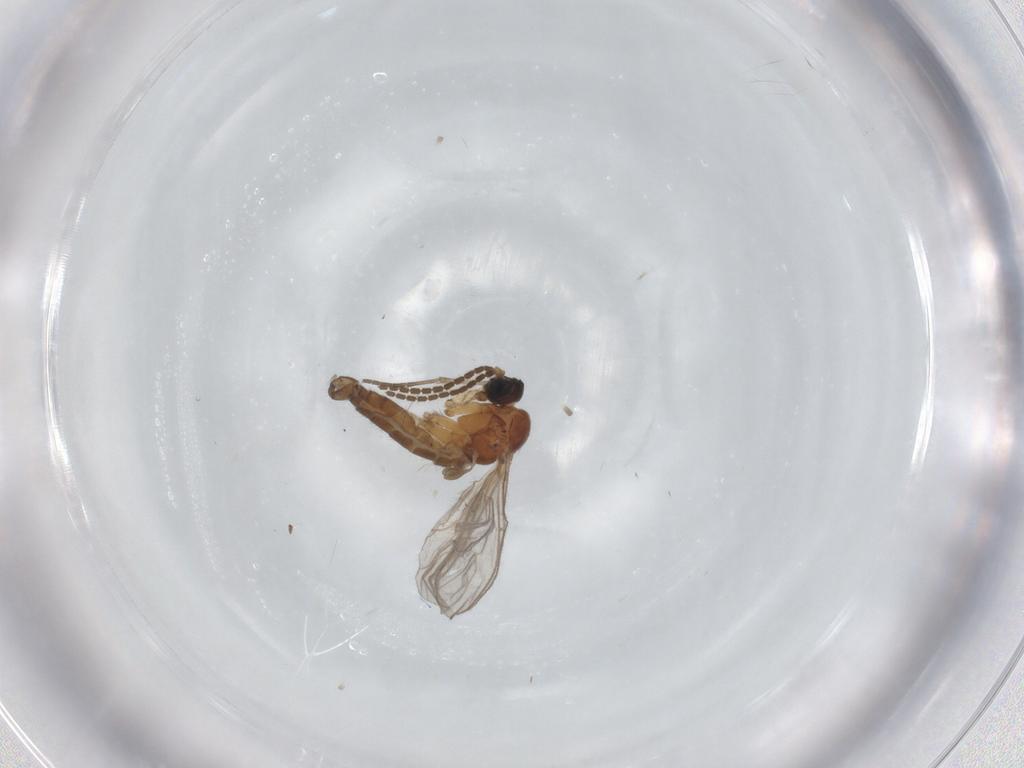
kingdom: Animalia
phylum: Arthropoda
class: Insecta
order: Diptera
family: Sciaridae
